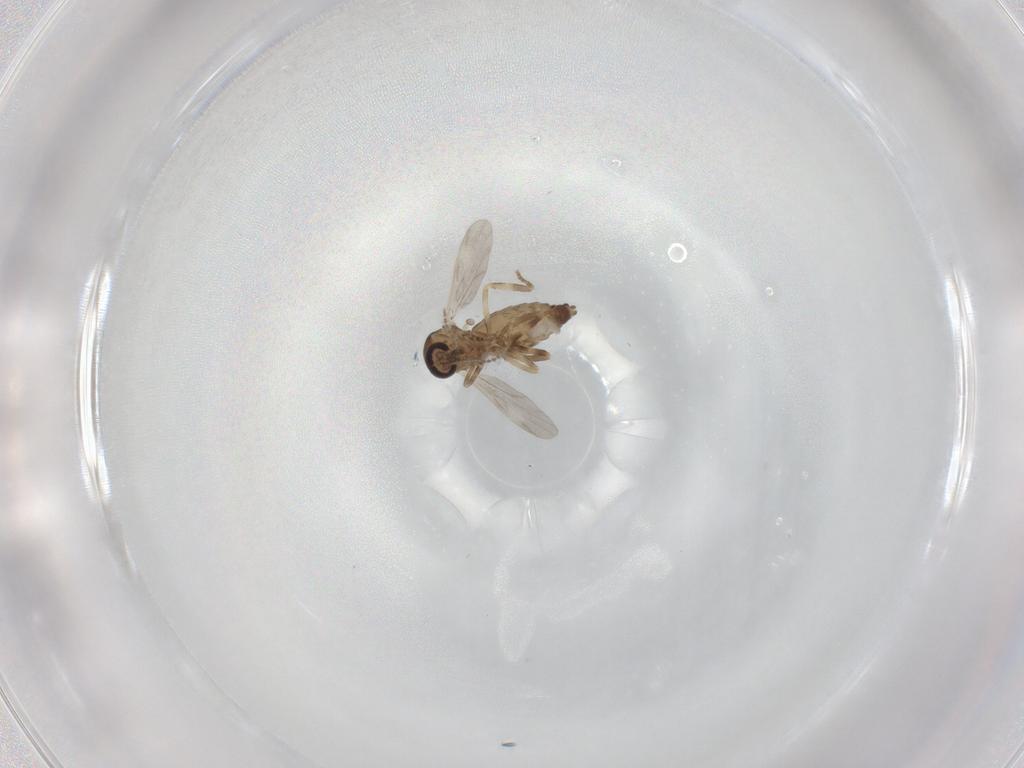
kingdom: Animalia
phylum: Arthropoda
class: Insecta
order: Diptera
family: Ceratopogonidae
